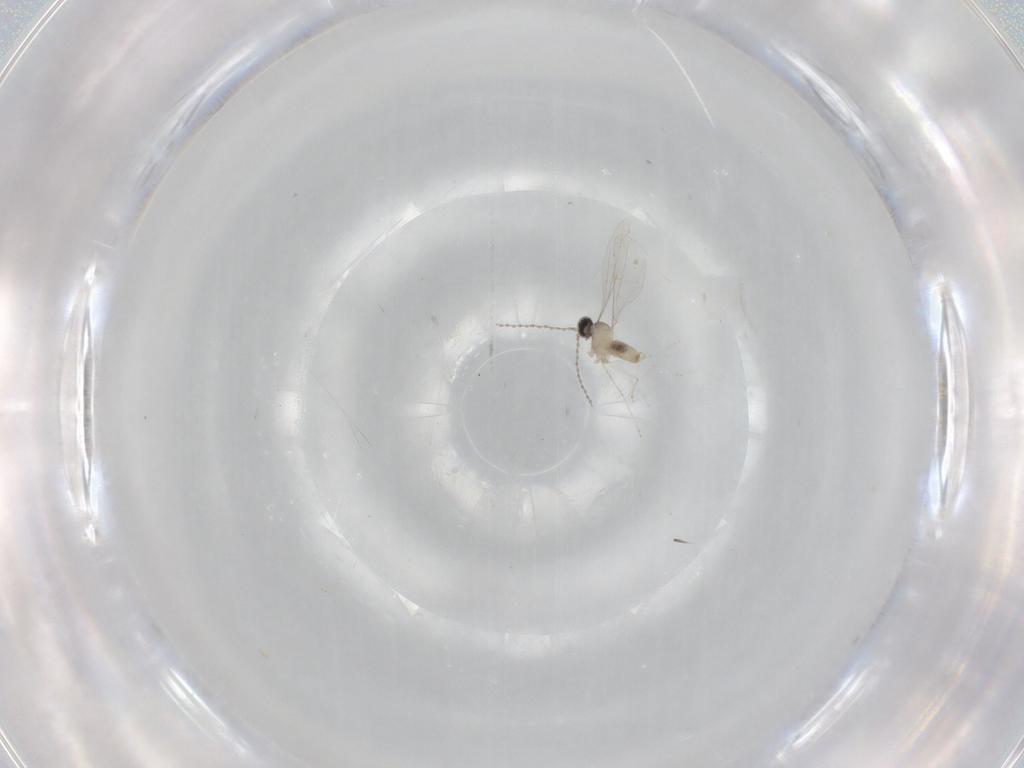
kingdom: Animalia
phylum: Arthropoda
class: Insecta
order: Diptera
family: Cecidomyiidae
